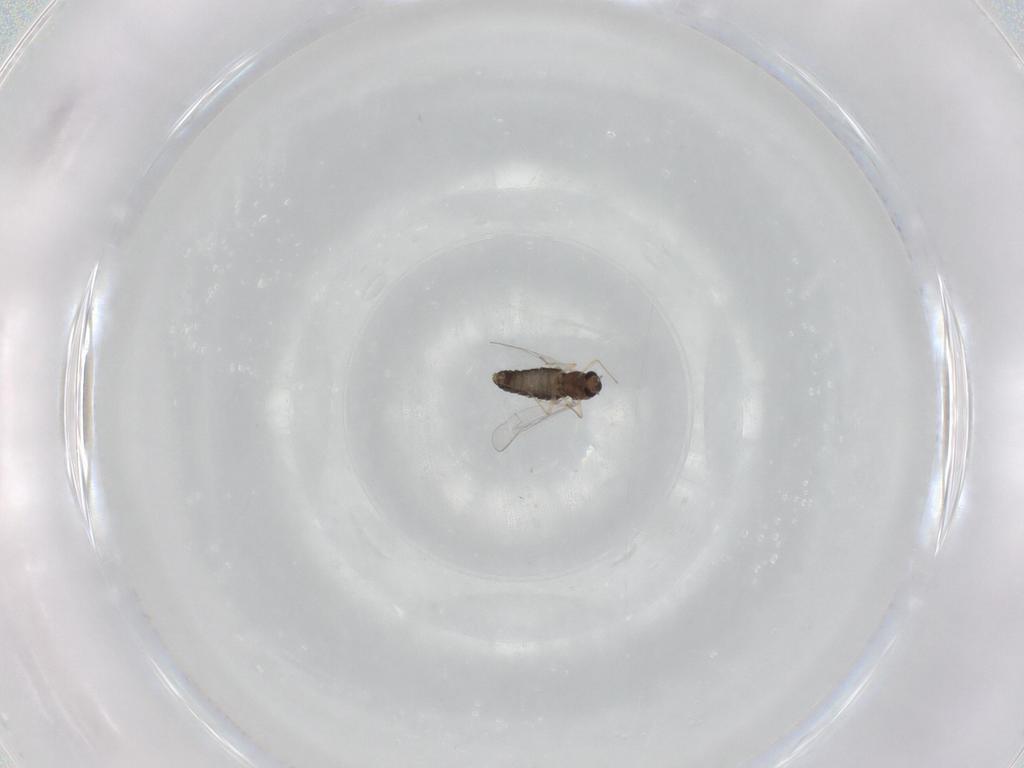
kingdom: Animalia
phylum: Arthropoda
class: Insecta
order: Diptera
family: Chironomidae
